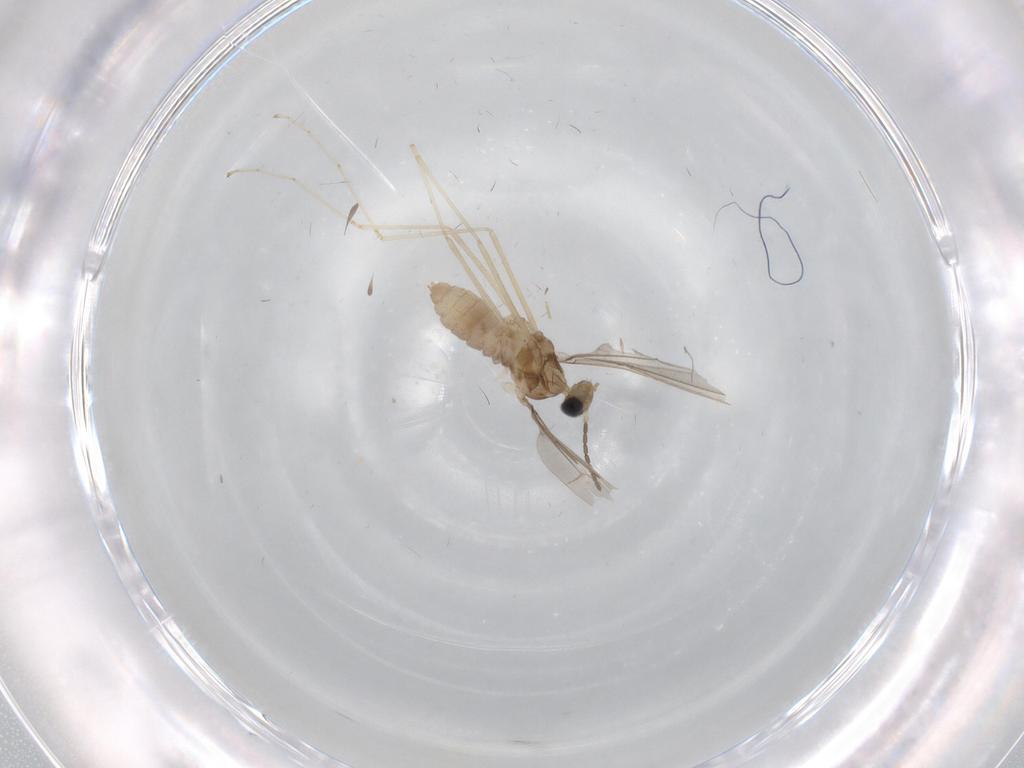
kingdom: Animalia
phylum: Arthropoda
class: Insecta
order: Diptera
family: Cecidomyiidae
